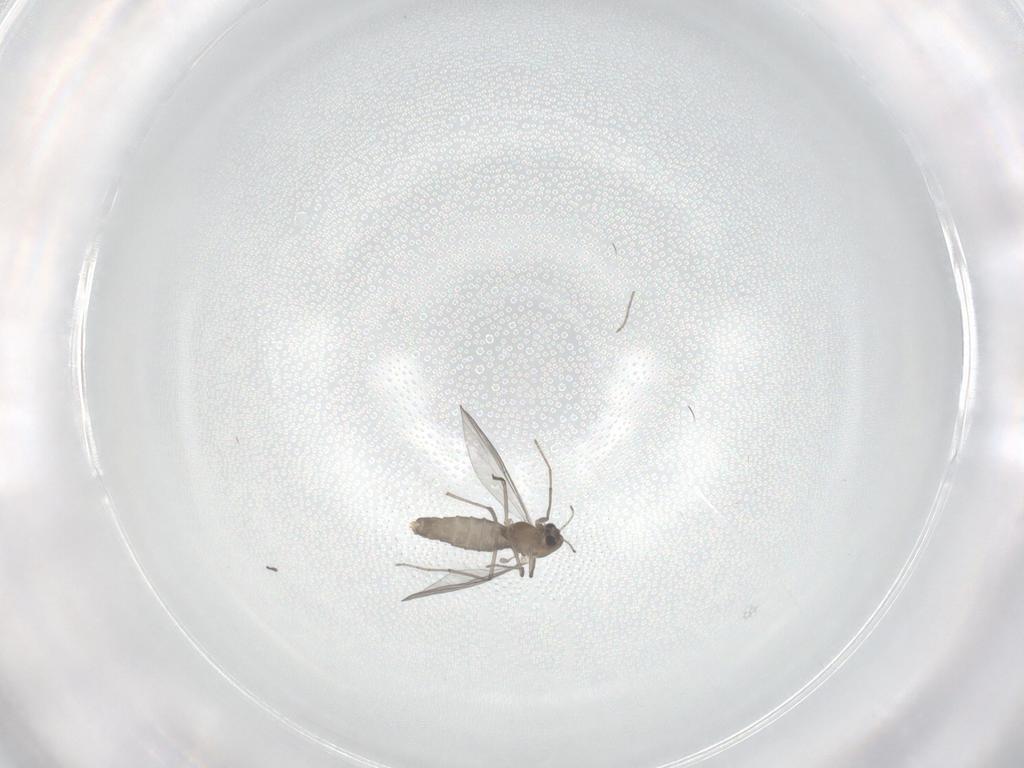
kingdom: Animalia
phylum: Arthropoda
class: Insecta
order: Diptera
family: Chironomidae
